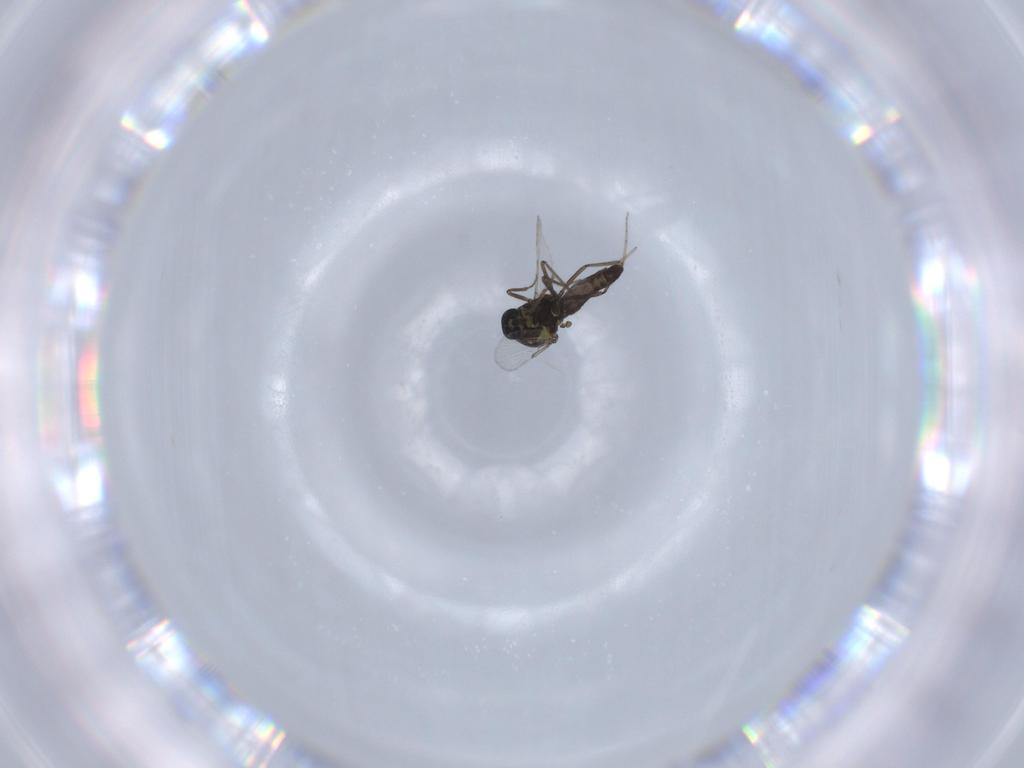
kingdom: Animalia
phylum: Arthropoda
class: Insecta
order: Diptera
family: Ceratopogonidae
